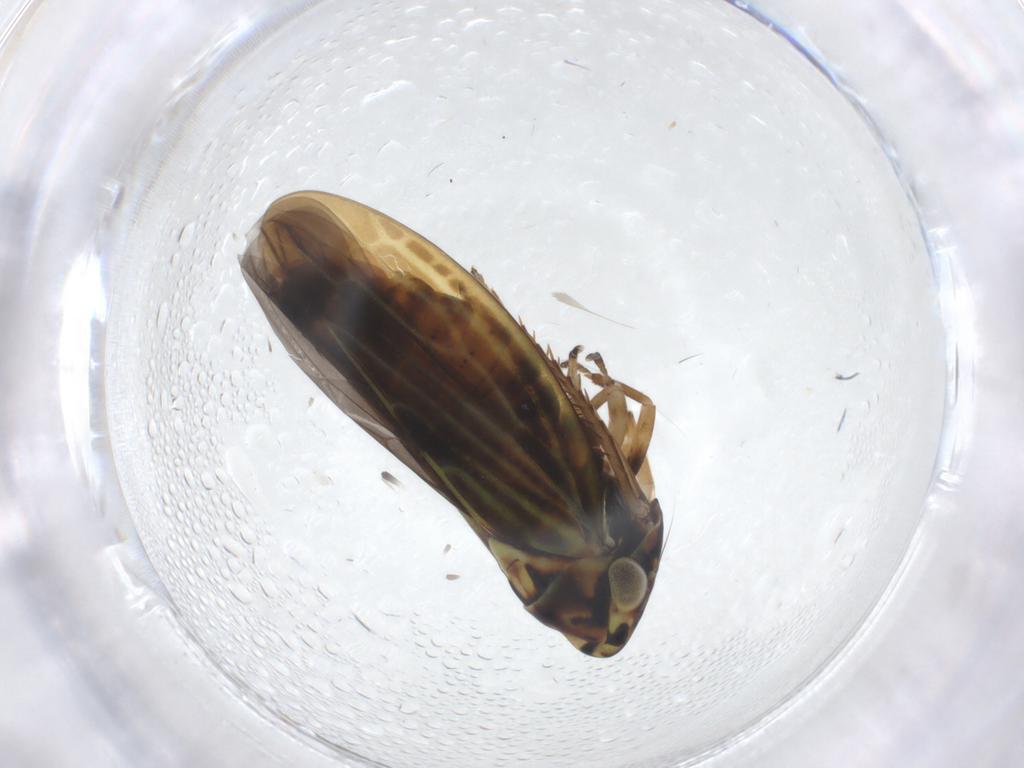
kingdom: Animalia
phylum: Arthropoda
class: Insecta
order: Hemiptera
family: Cicadellidae
